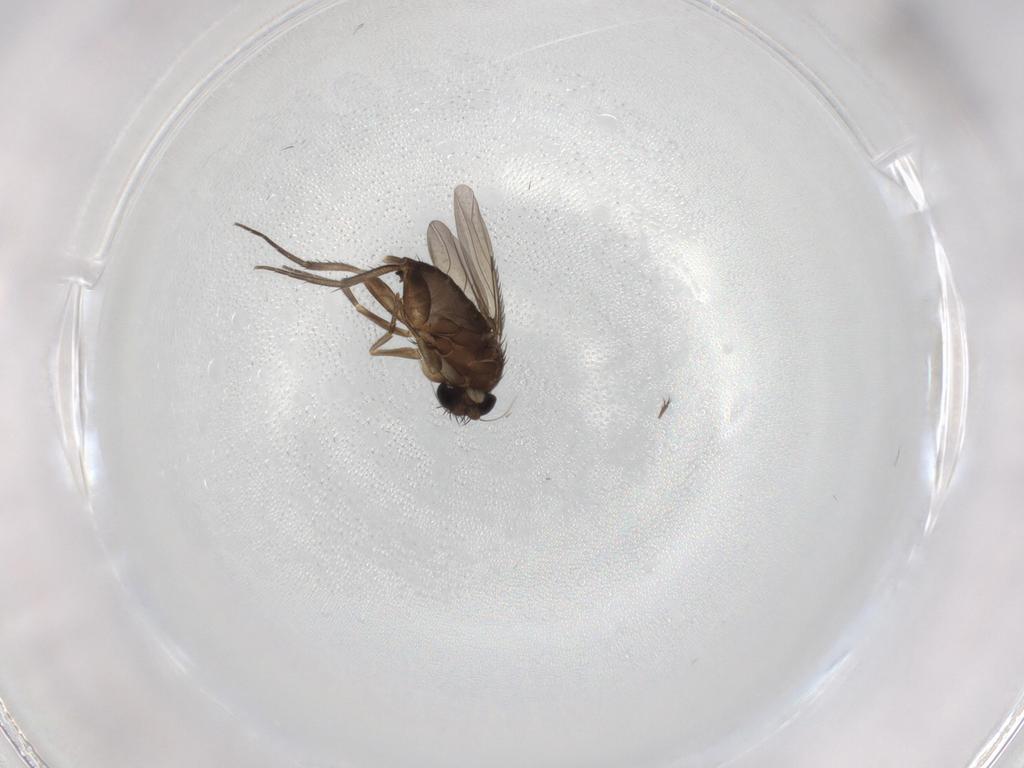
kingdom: Animalia
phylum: Arthropoda
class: Insecta
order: Diptera
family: Phoridae
